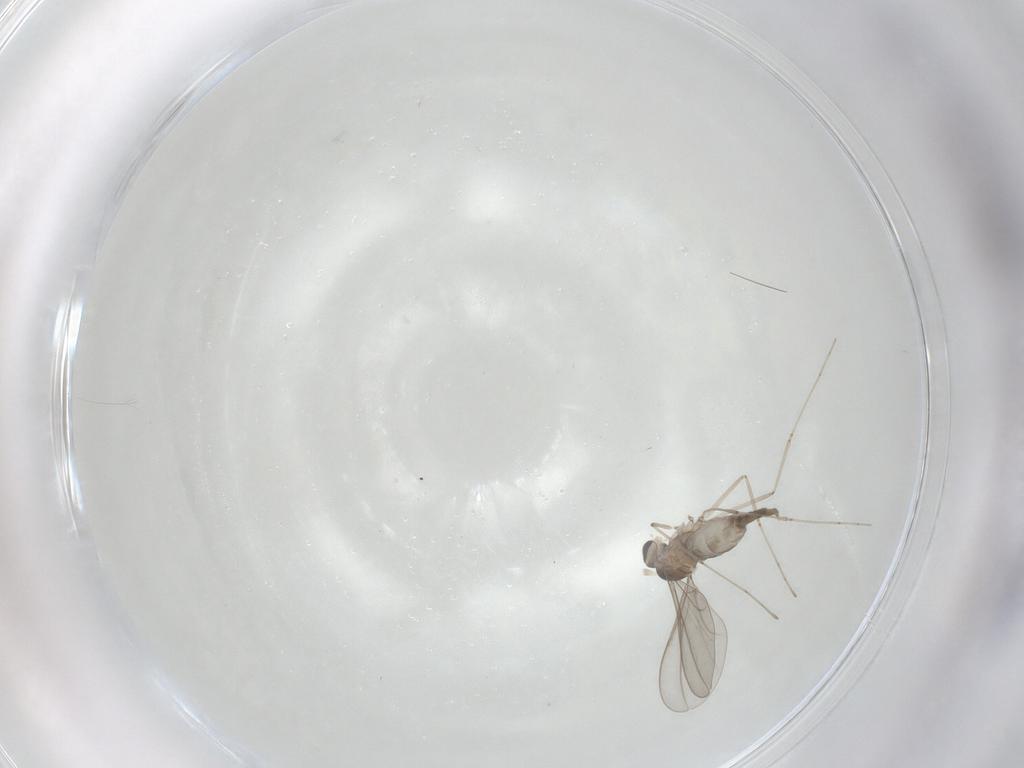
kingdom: Animalia
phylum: Arthropoda
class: Insecta
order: Diptera
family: Cecidomyiidae
